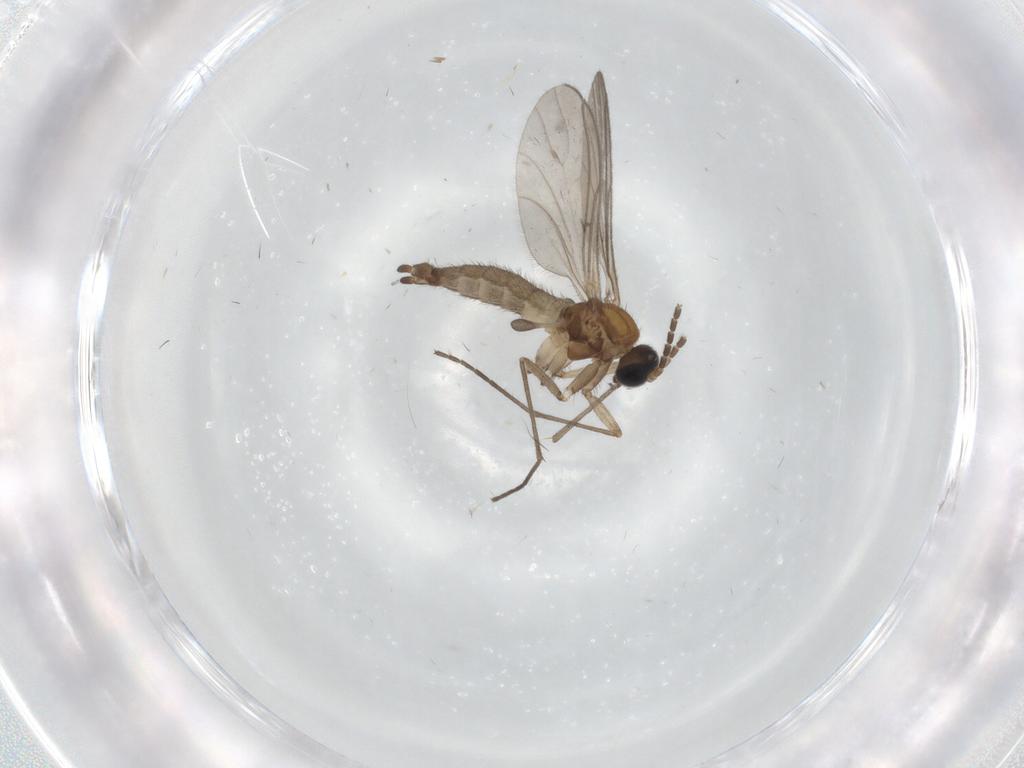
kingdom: Animalia
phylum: Arthropoda
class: Insecta
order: Diptera
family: Sciaridae
